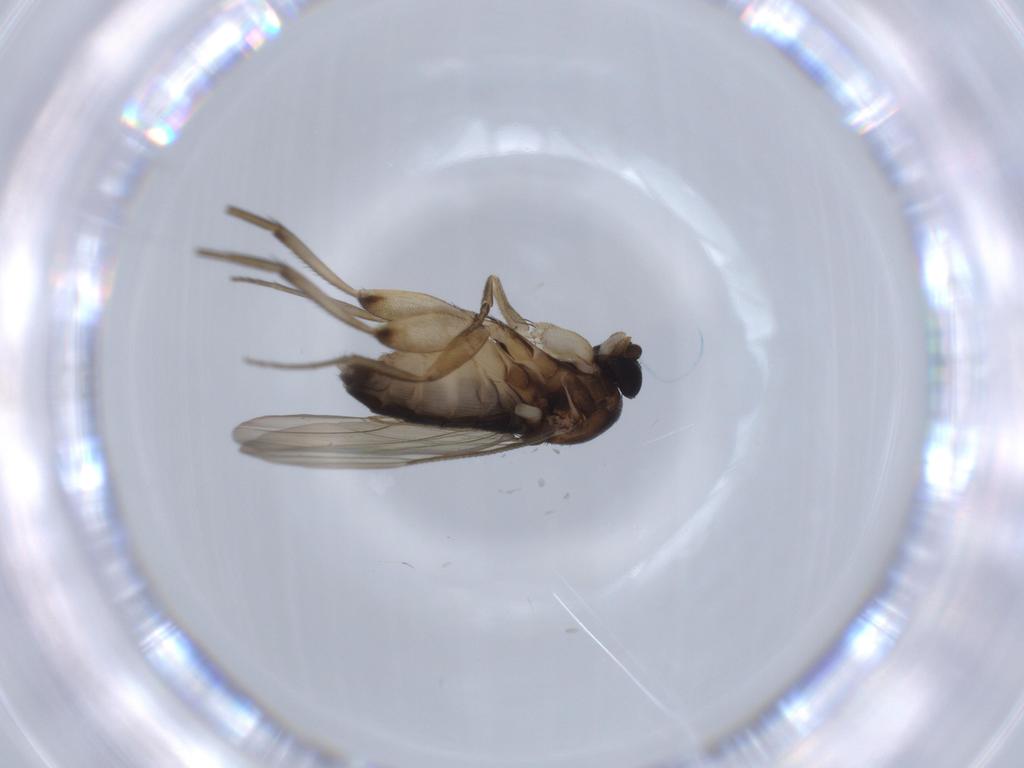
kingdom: Animalia
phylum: Arthropoda
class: Insecta
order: Diptera
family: Phoridae
